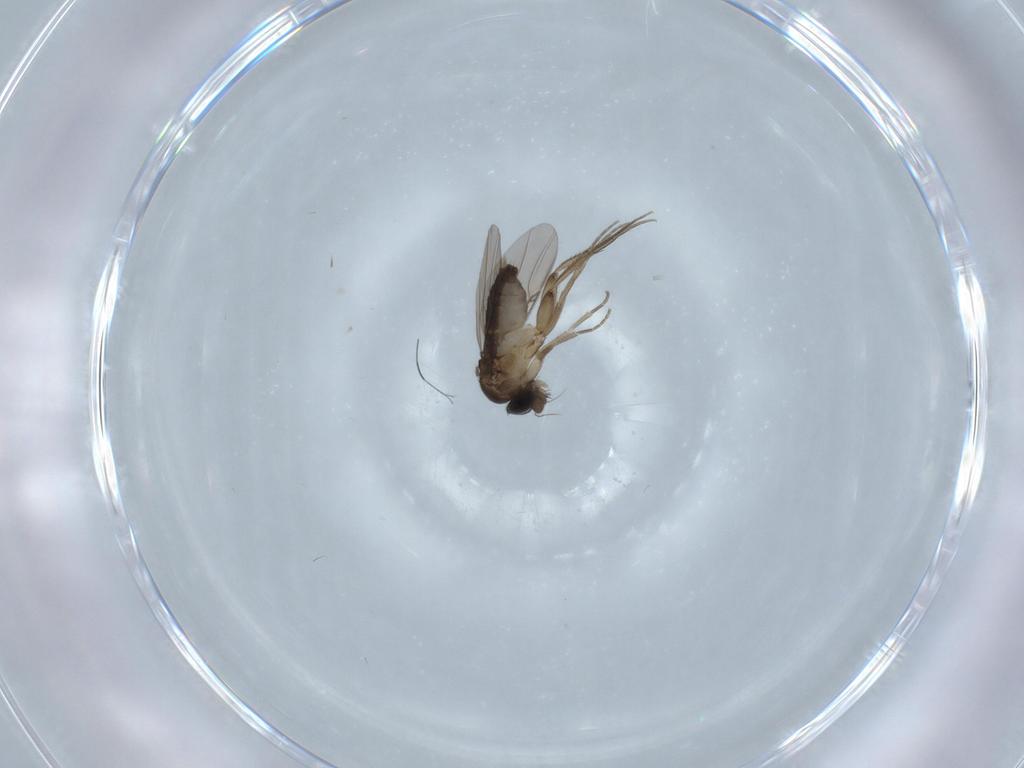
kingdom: Animalia
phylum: Arthropoda
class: Insecta
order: Diptera
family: Phoridae
